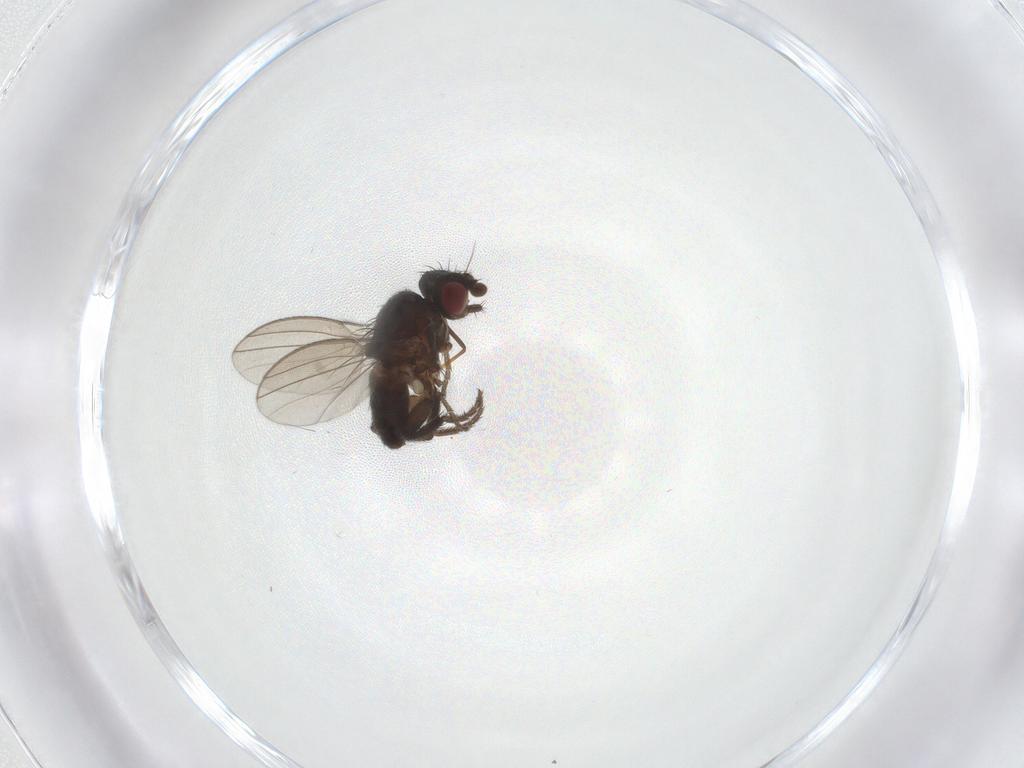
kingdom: Animalia
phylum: Arthropoda
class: Insecta
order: Diptera
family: Milichiidae
